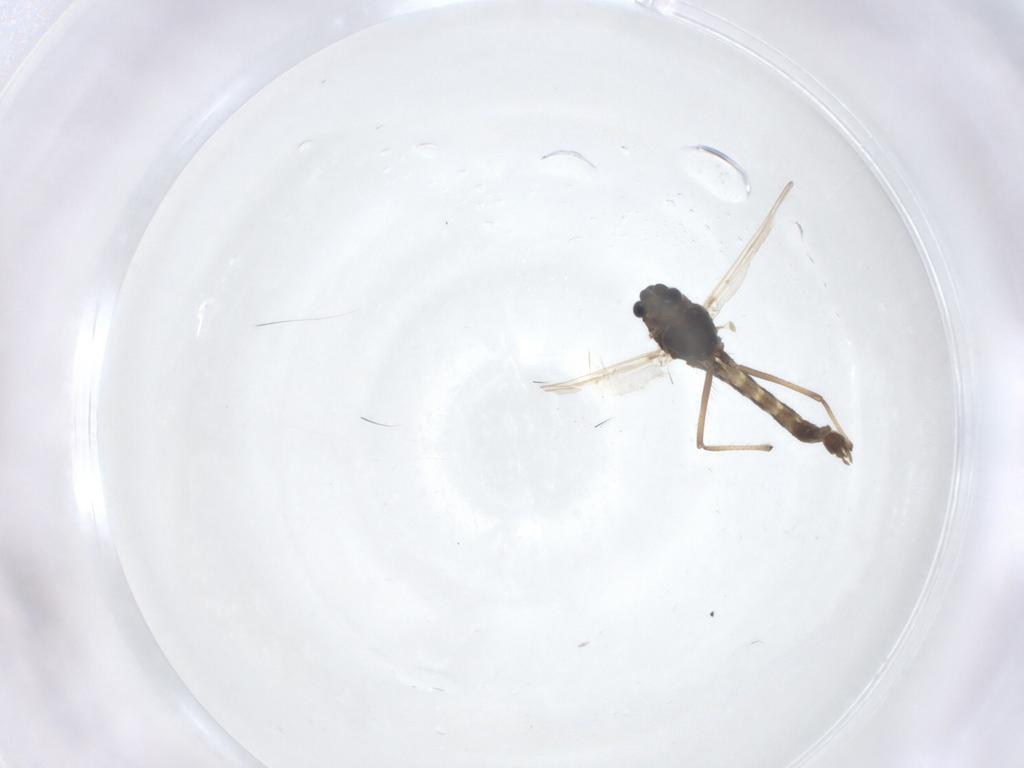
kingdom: Animalia
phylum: Arthropoda
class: Insecta
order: Diptera
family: Chironomidae
